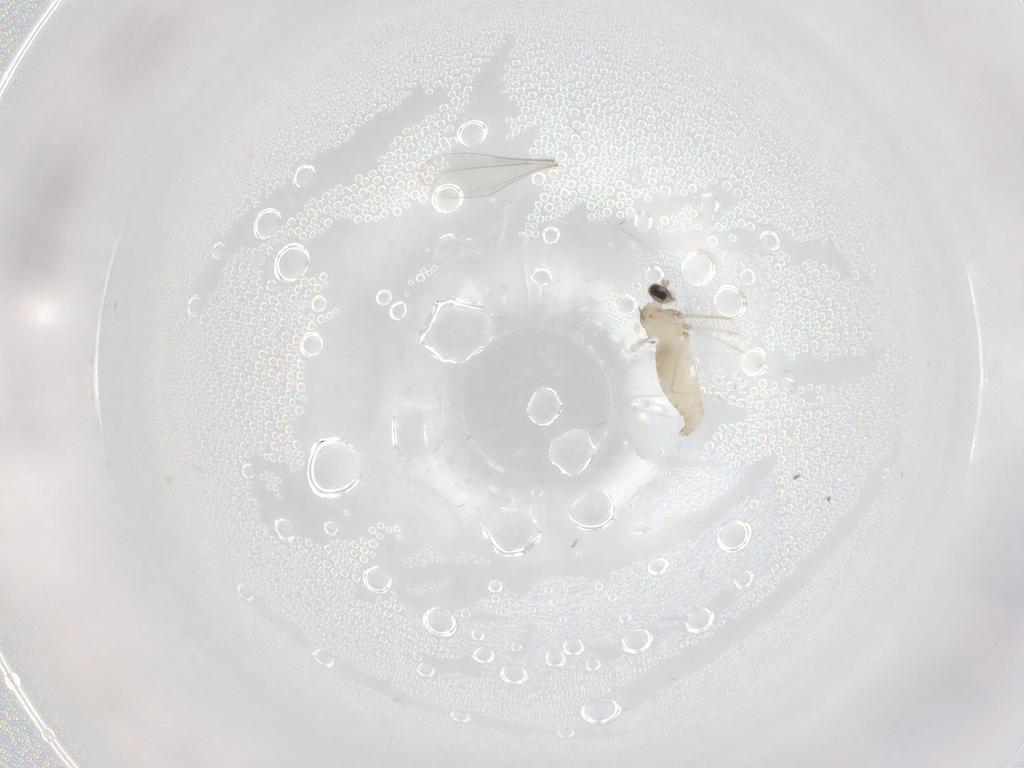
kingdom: Animalia
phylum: Arthropoda
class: Insecta
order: Diptera
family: Cecidomyiidae
